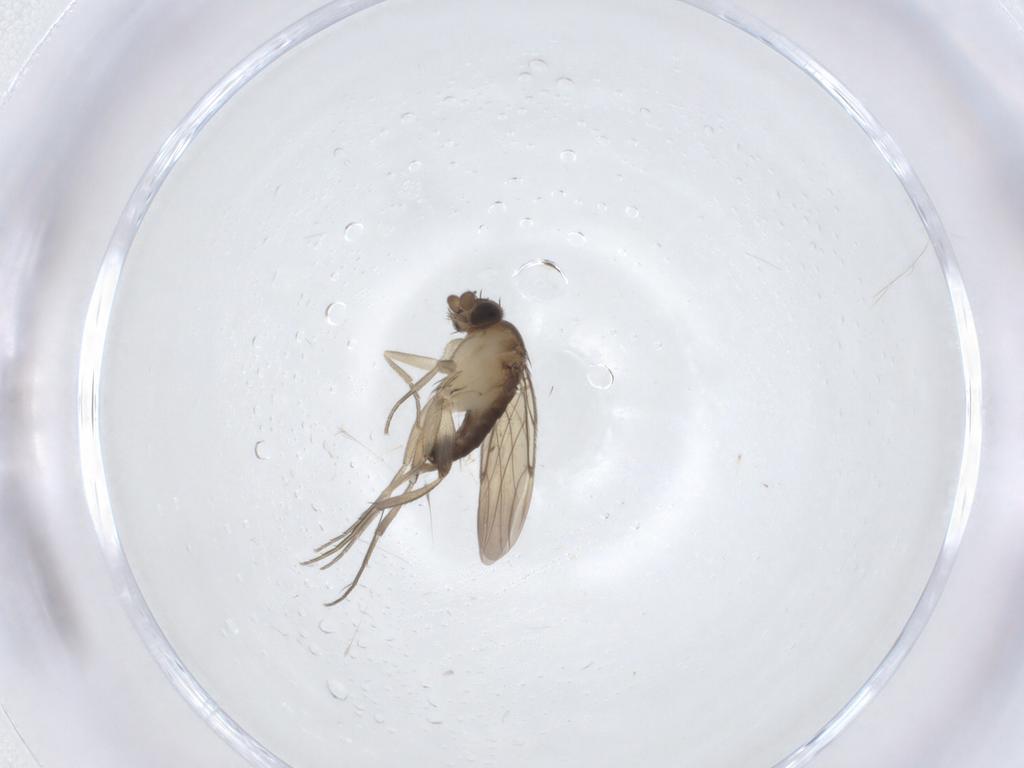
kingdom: Animalia
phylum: Arthropoda
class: Insecta
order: Diptera
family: Phoridae
